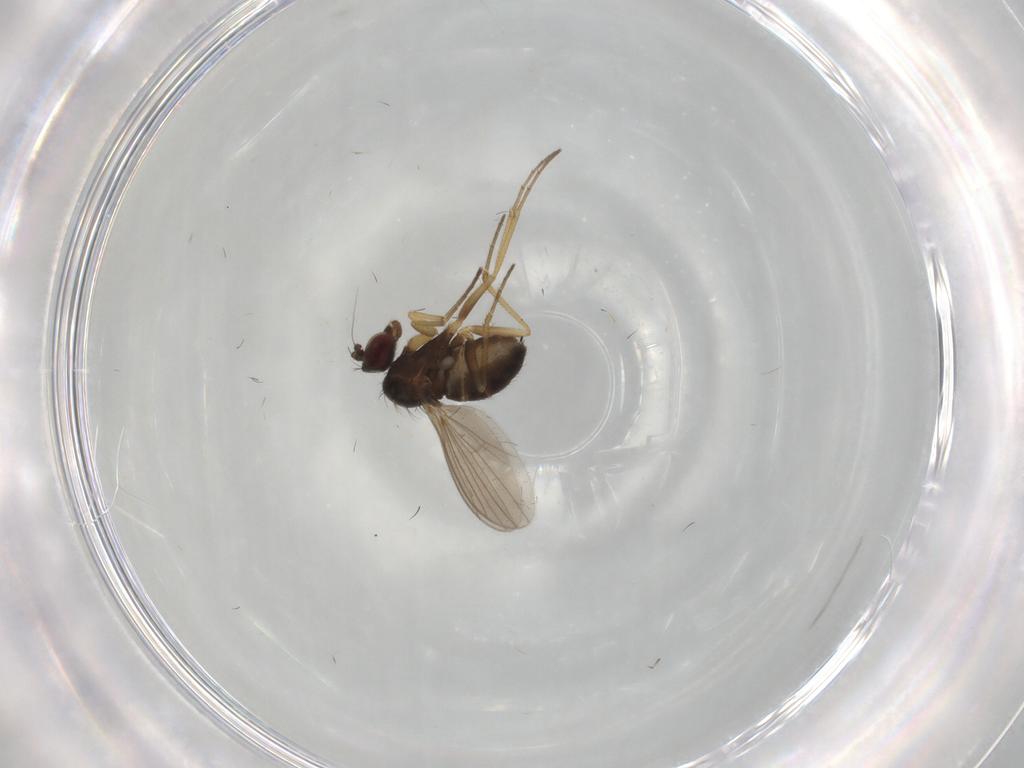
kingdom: Animalia
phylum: Arthropoda
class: Insecta
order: Diptera
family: Dolichopodidae
